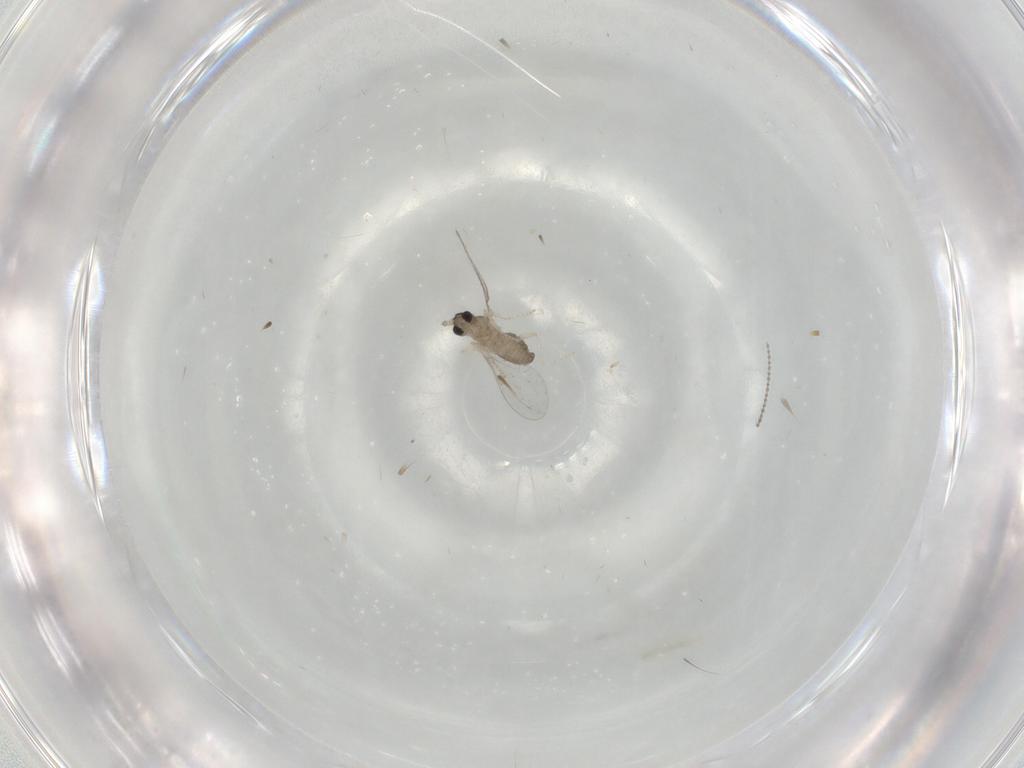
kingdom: Animalia
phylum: Arthropoda
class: Insecta
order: Diptera
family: Cecidomyiidae
